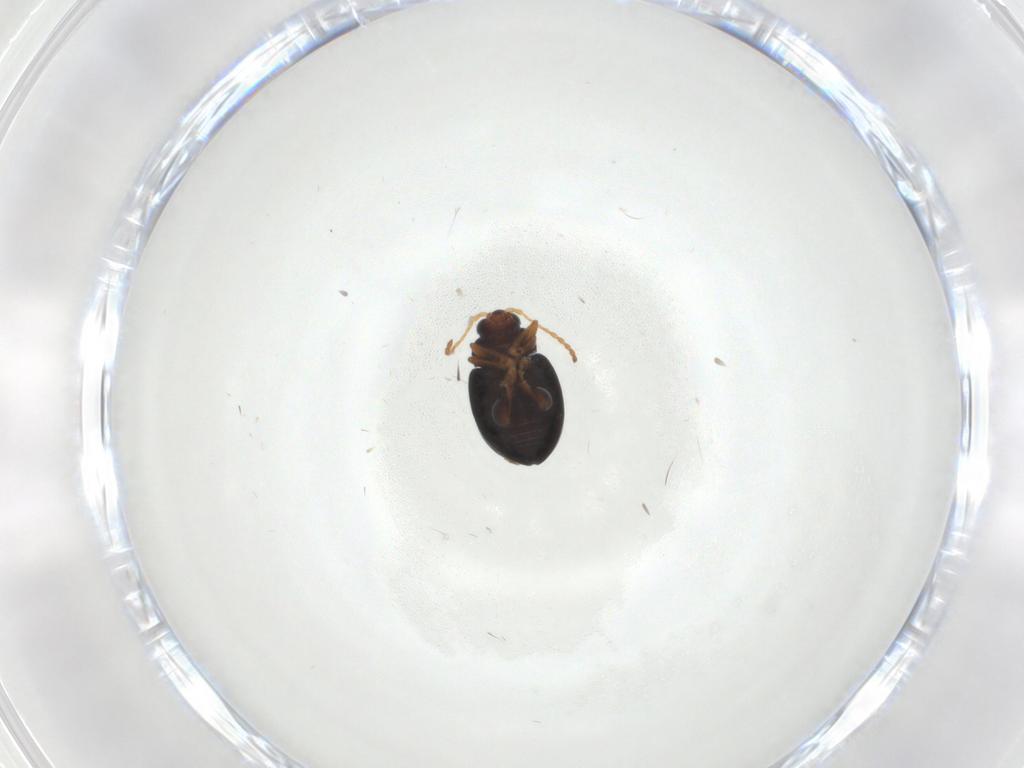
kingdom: Animalia
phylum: Arthropoda
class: Insecta
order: Coleoptera
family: Chrysomelidae
